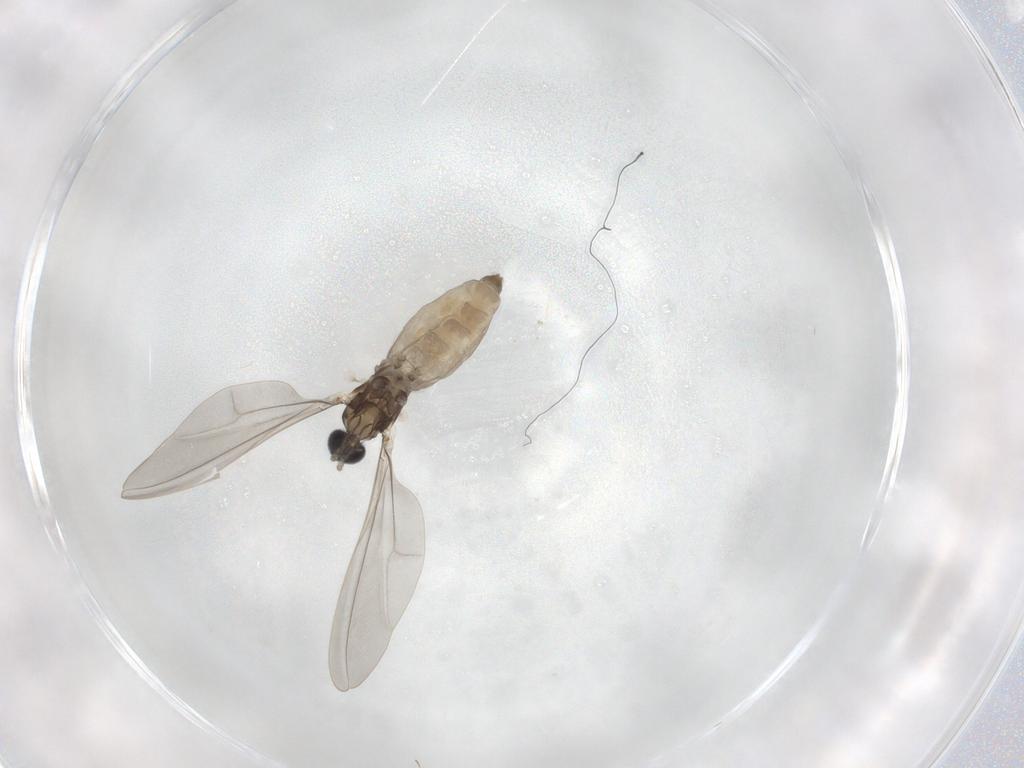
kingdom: Animalia
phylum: Arthropoda
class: Insecta
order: Diptera
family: Cecidomyiidae
